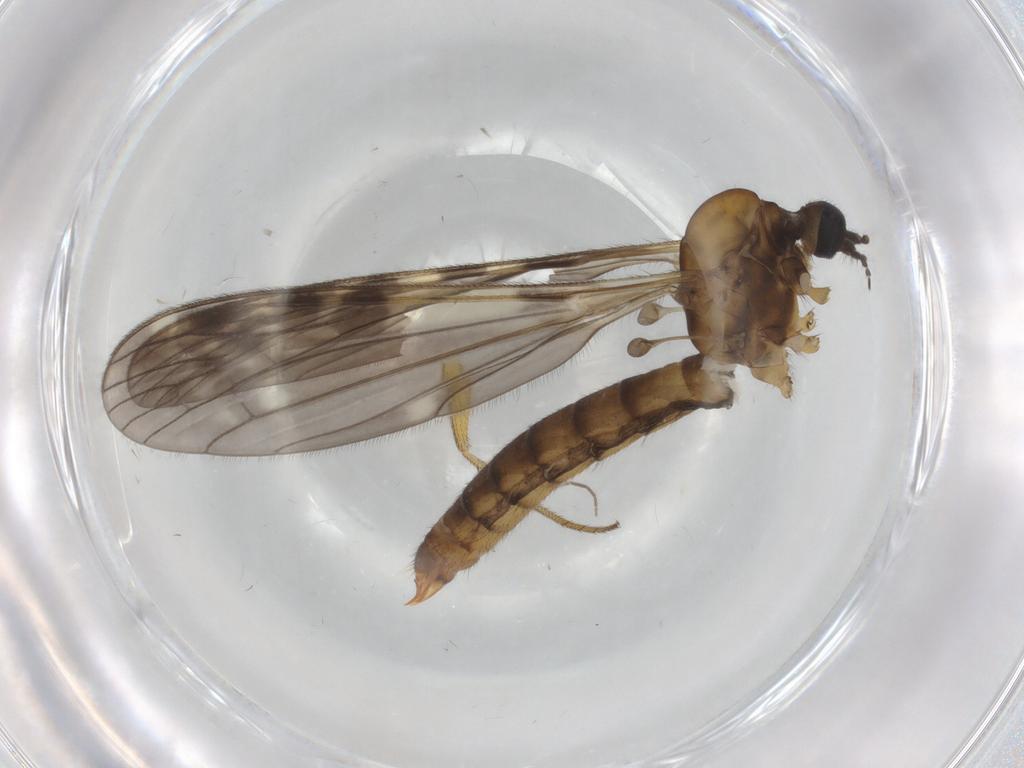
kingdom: Animalia
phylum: Arthropoda
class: Insecta
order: Diptera
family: Limoniidae
